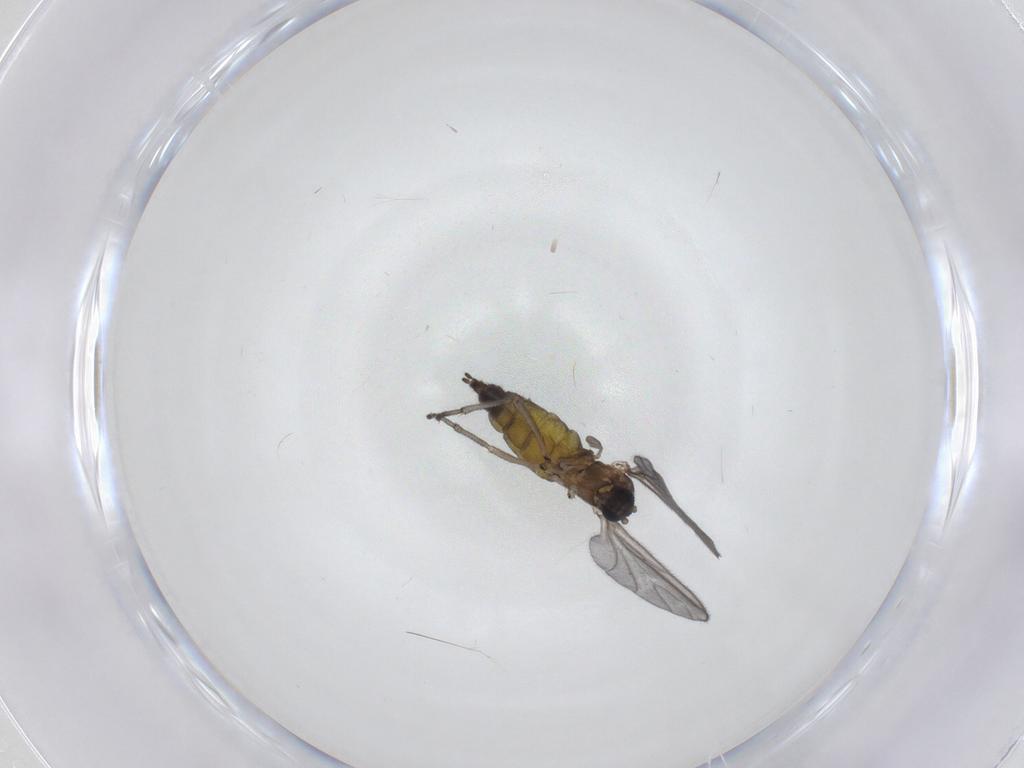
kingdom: Animalia
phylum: Arthropoda
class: Insecta
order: Diptera
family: Sciaridae
